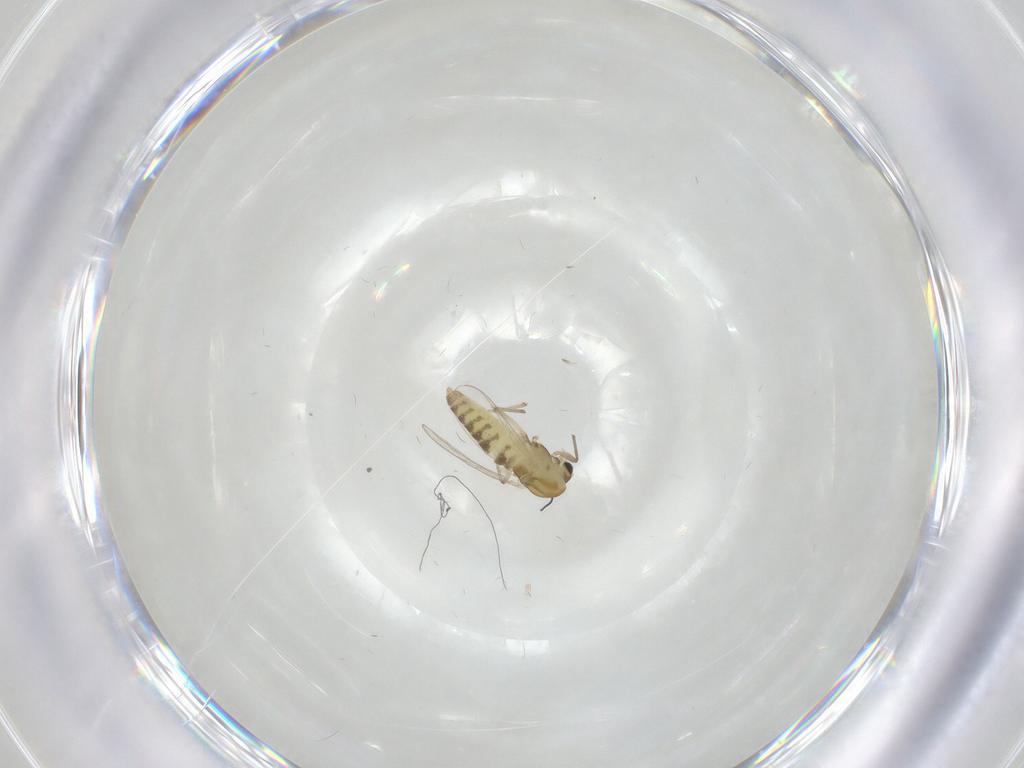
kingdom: Animalia
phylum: Arthropoda
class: Insecta
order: Diptera
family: Chironomidae
